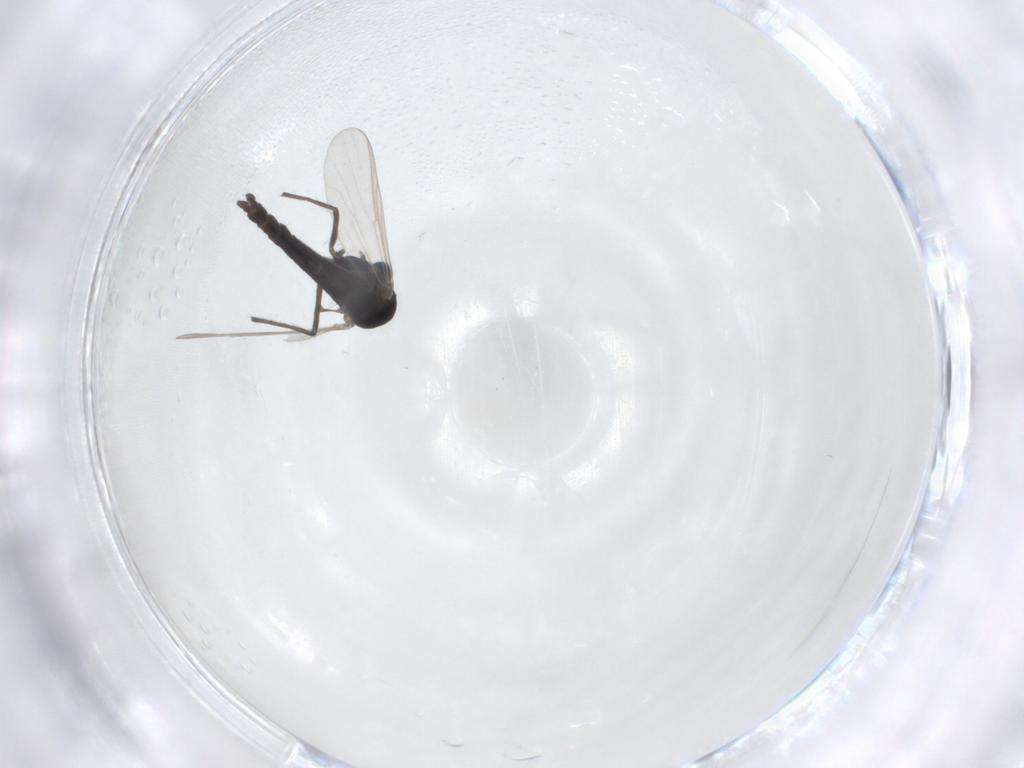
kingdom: Animalia
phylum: Arthropoda
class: Insecta
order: Diptera
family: Chironomidae
